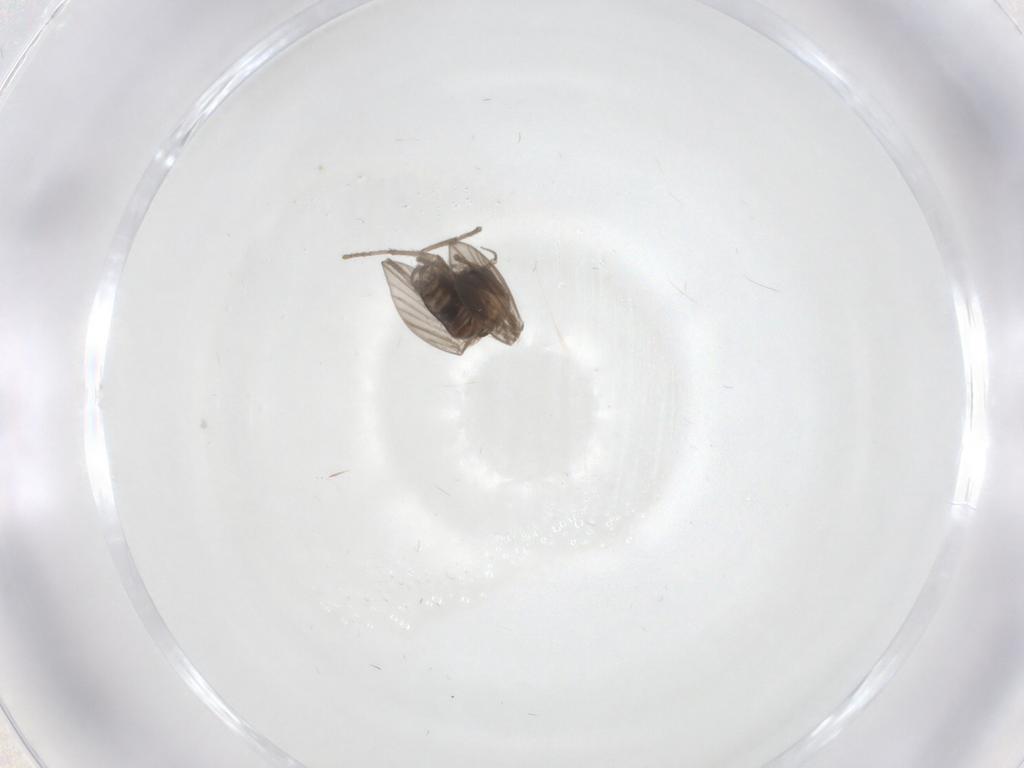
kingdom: Animalia
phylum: Arthropoda
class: Insecta
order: Diptera
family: Psychodidae
